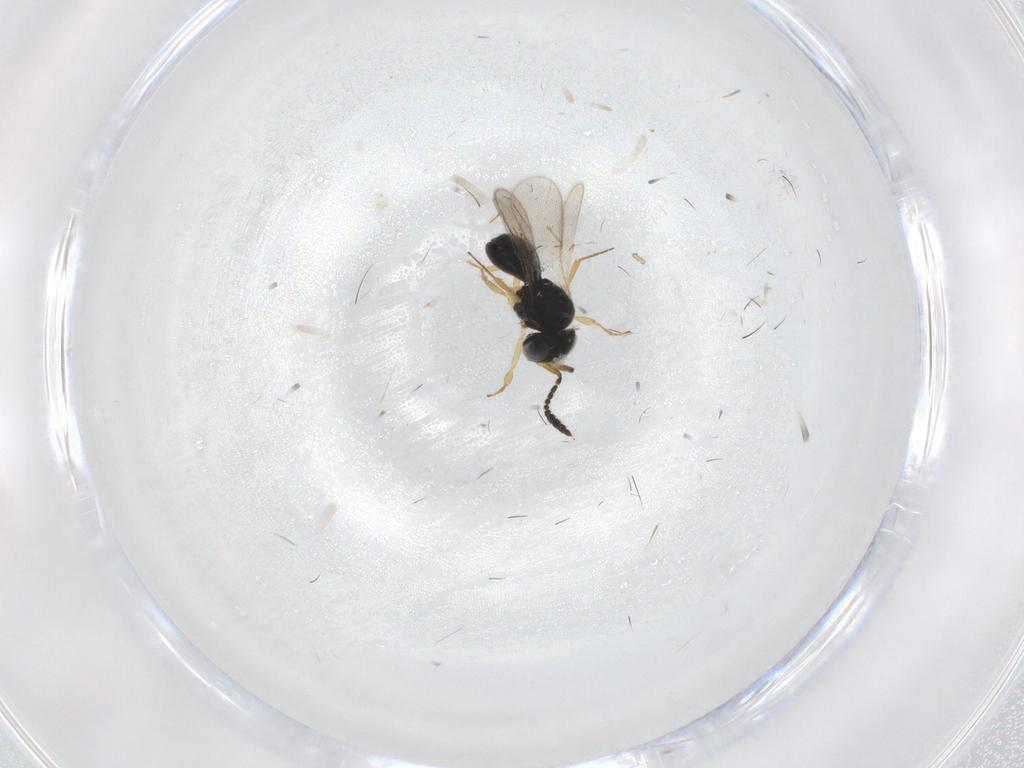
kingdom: Animalia
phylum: Arthropoda
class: Insecta
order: Hymenoptera
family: Scelionidae
